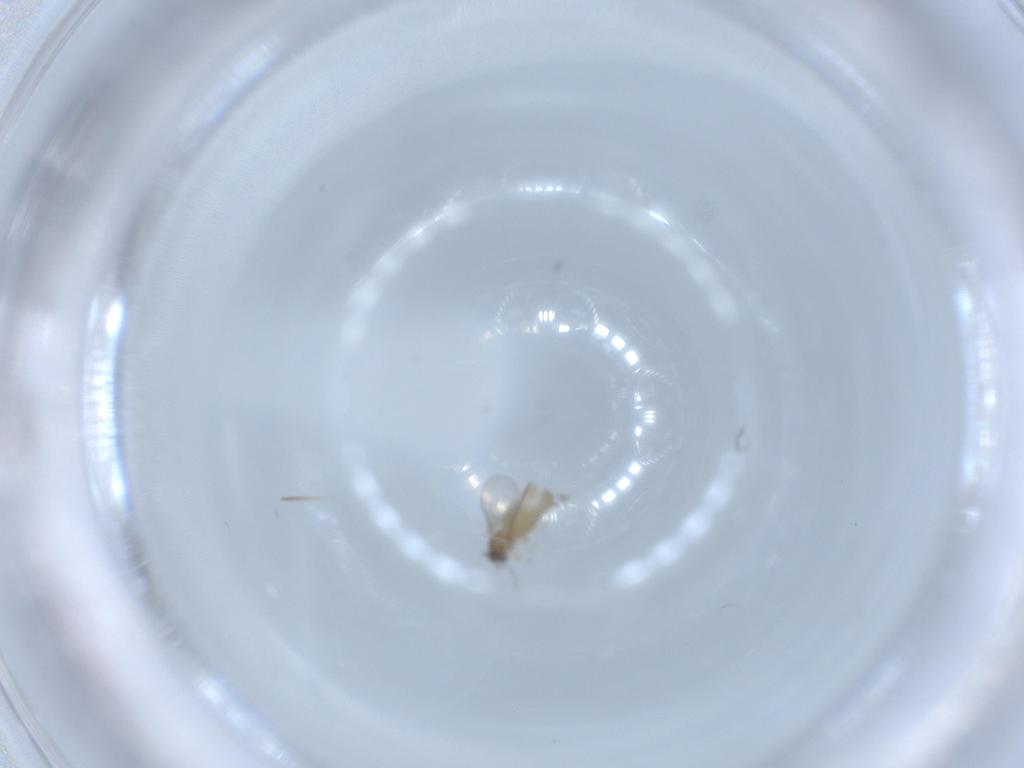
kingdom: Animalia
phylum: Arthropoda
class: Insecta
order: Diptera
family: Cecidomyiidae
